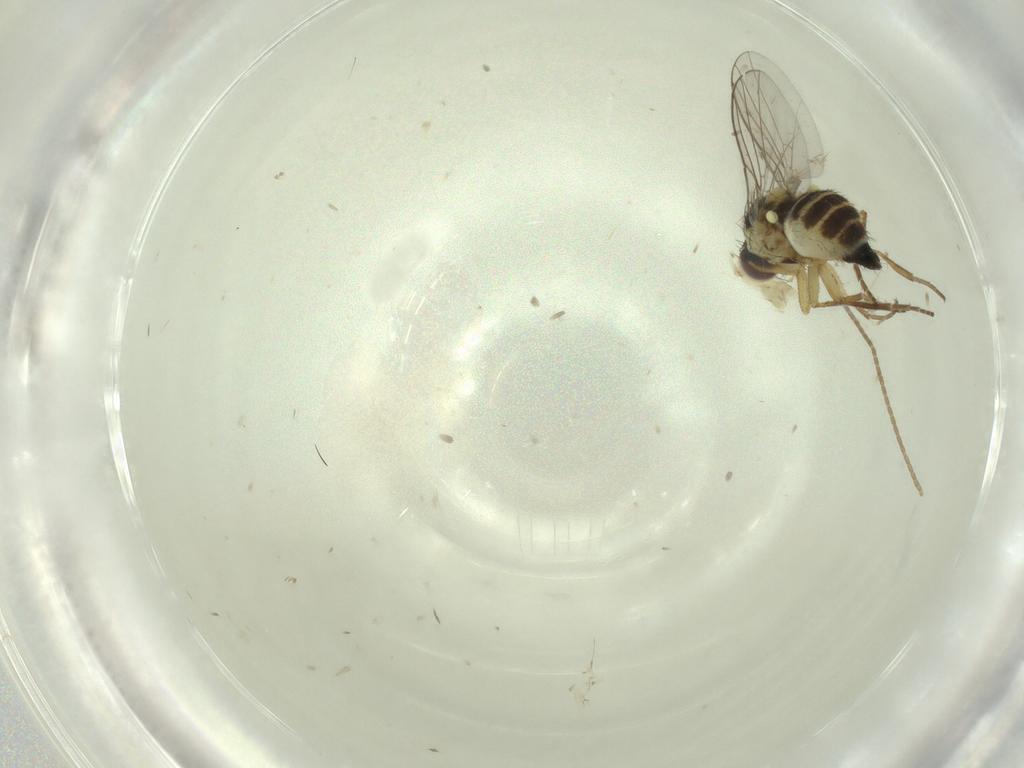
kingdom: Animalia
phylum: Arthropoda
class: Insecta
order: Diptera
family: Agromyzidae
